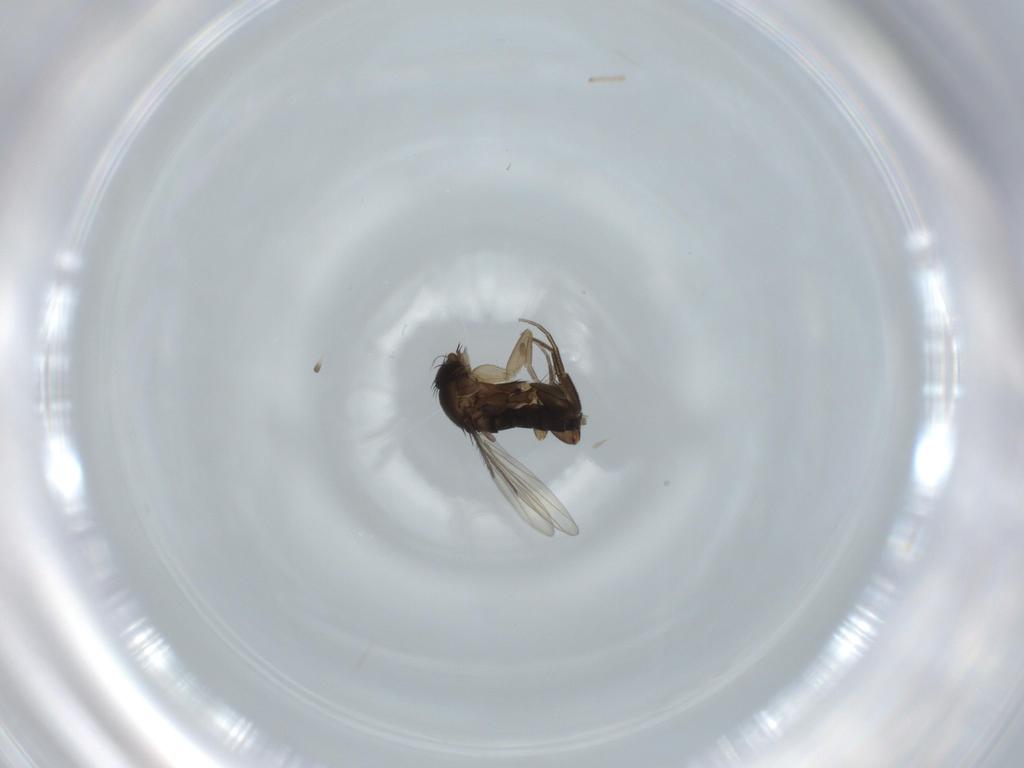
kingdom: Animalia
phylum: Arthropoda
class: Insecta
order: Diptera
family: Phoridae
